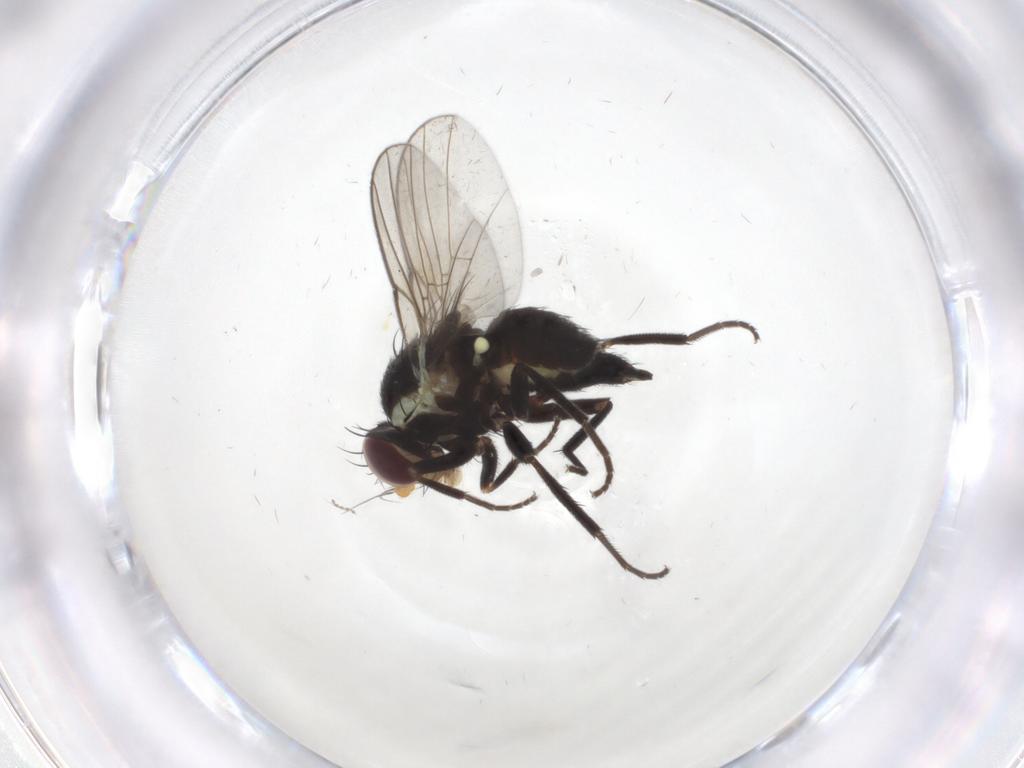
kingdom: Animalia
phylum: Arthropoda
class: Insecta
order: Diptera
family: Agromyzidae
